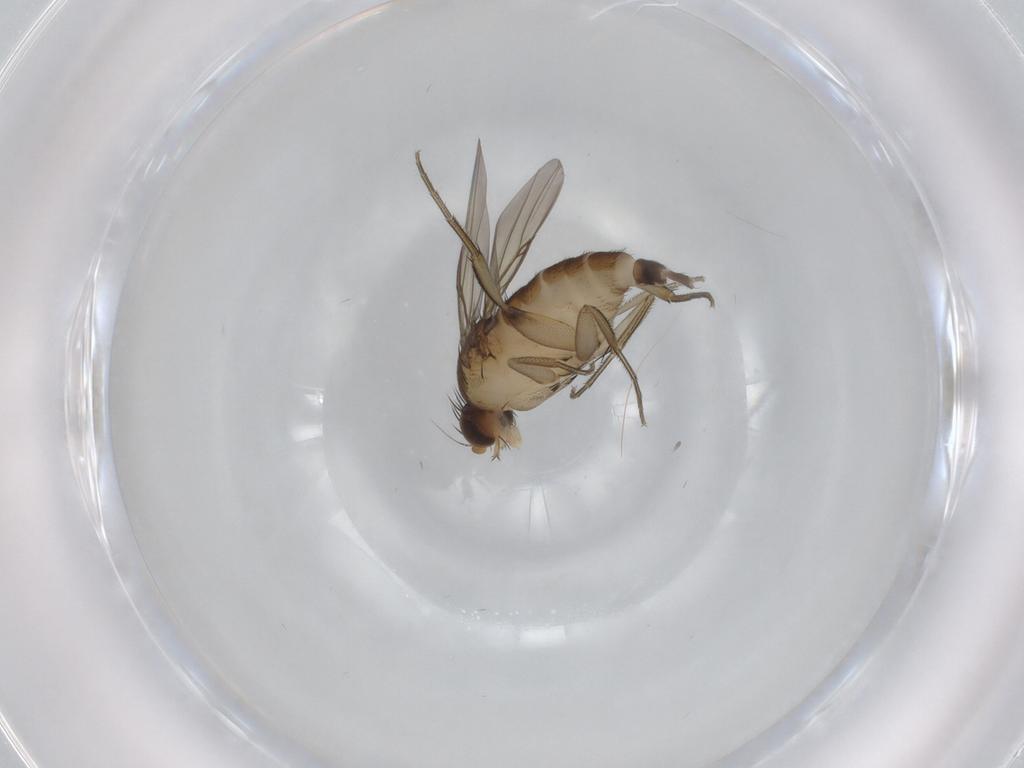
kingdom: Animalia
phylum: Arthropoda
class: Insecta
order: Diptera
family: Phoridae
